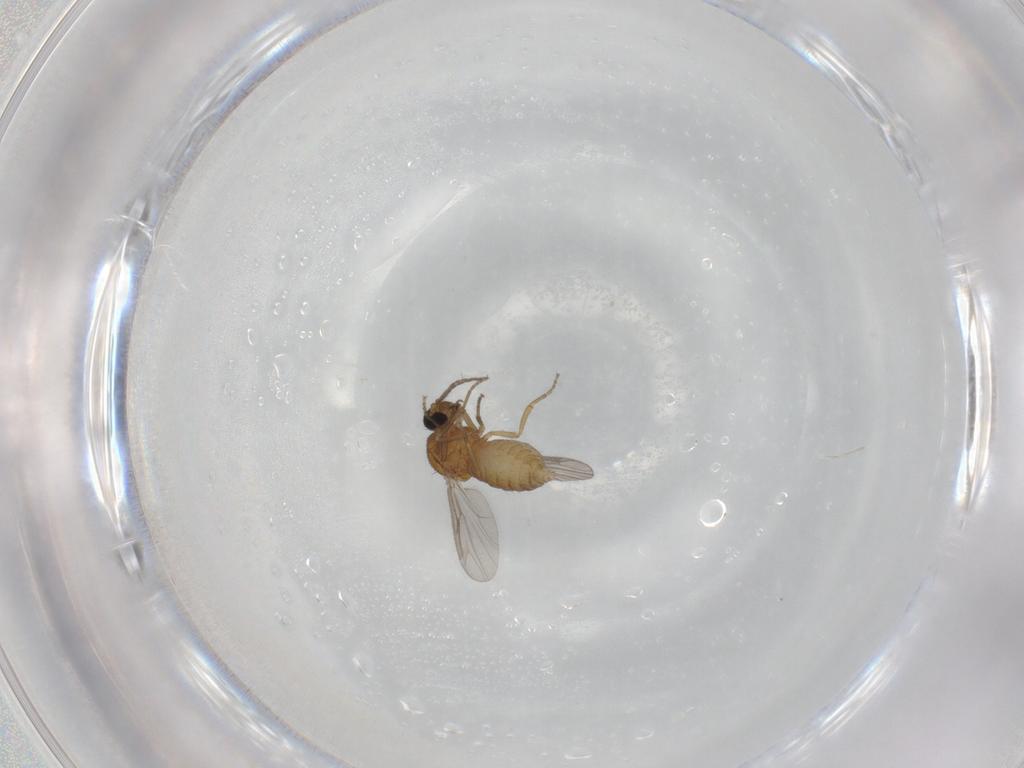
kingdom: Animalia
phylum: Arthropoda
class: Insecta
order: Diptera
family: Ceratopogonidae
